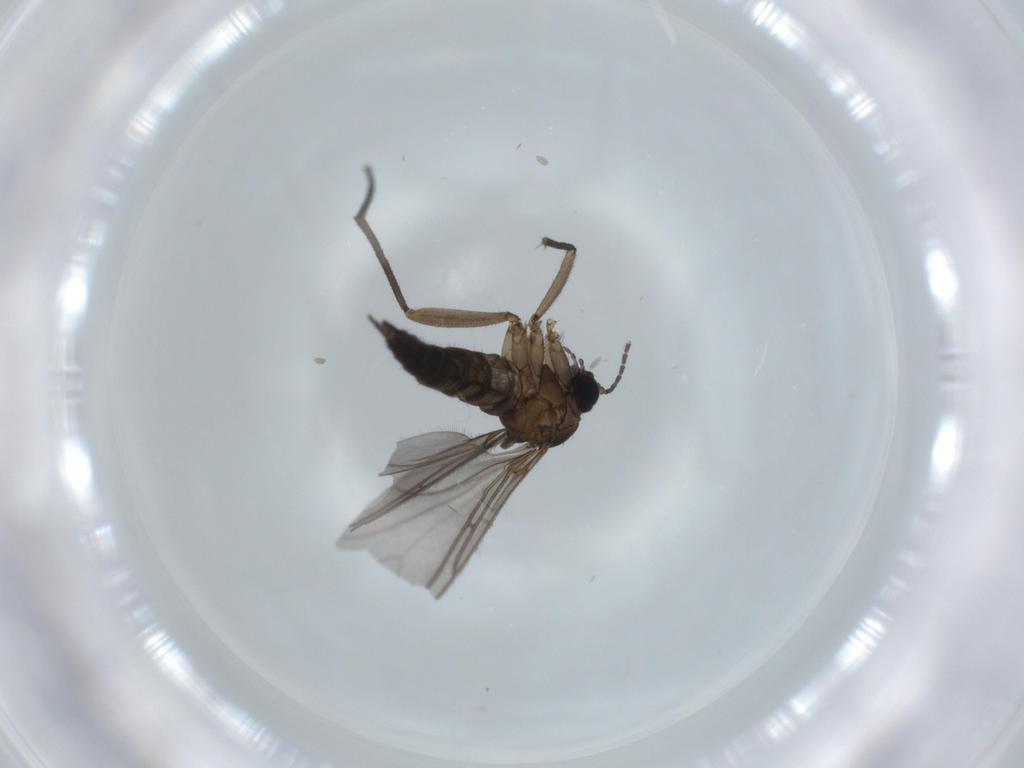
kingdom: Animalia
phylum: Arthropoda
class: Insecta
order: Diptera
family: Sciaridae
